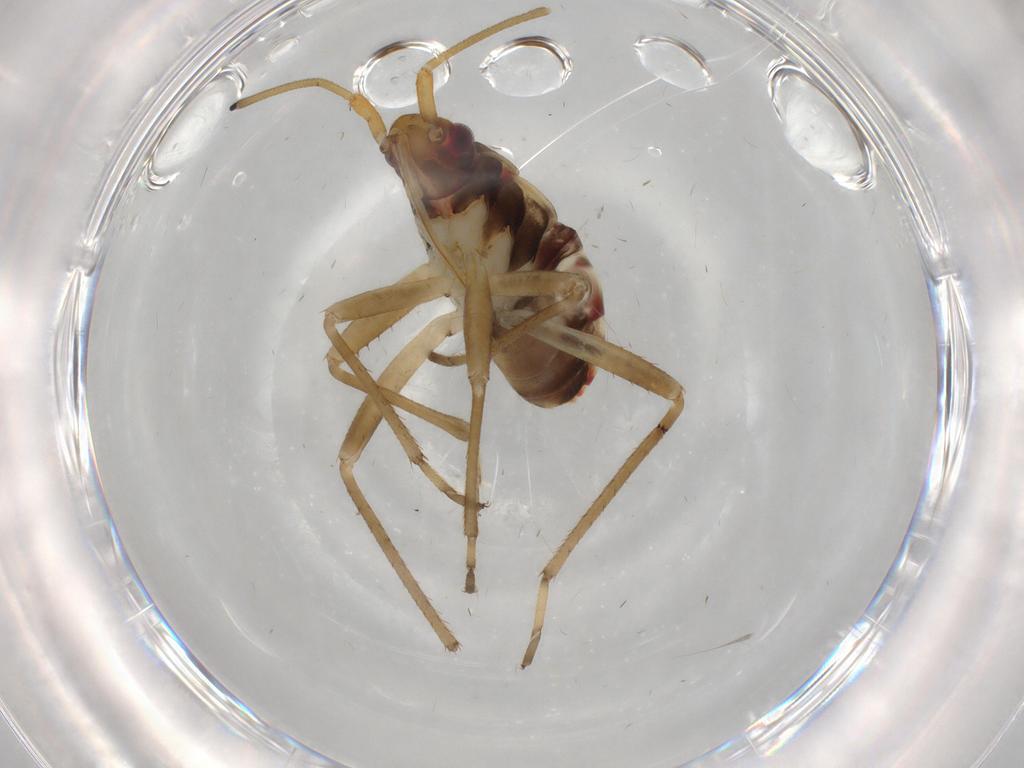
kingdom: Animalia
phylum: Arthropoda
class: Insecta
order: Hemiptera
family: Rhyparochromidae
